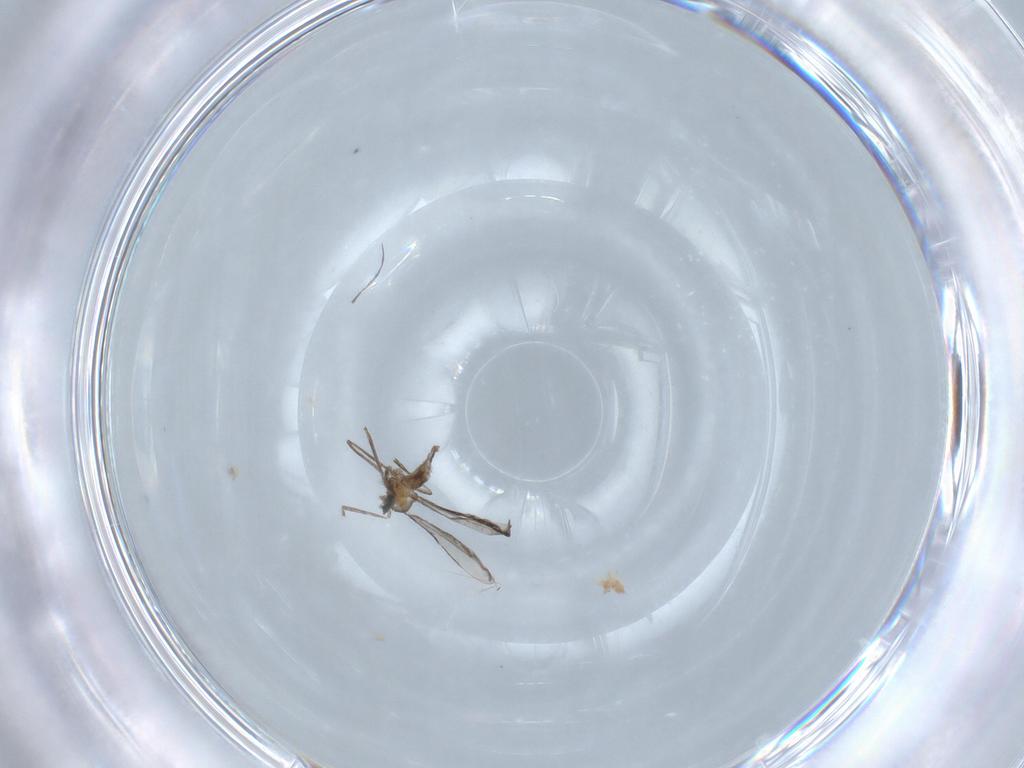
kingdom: Animalia
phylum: Arthropoda
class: Insecta
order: Diptera
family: Cecidomyiidae
